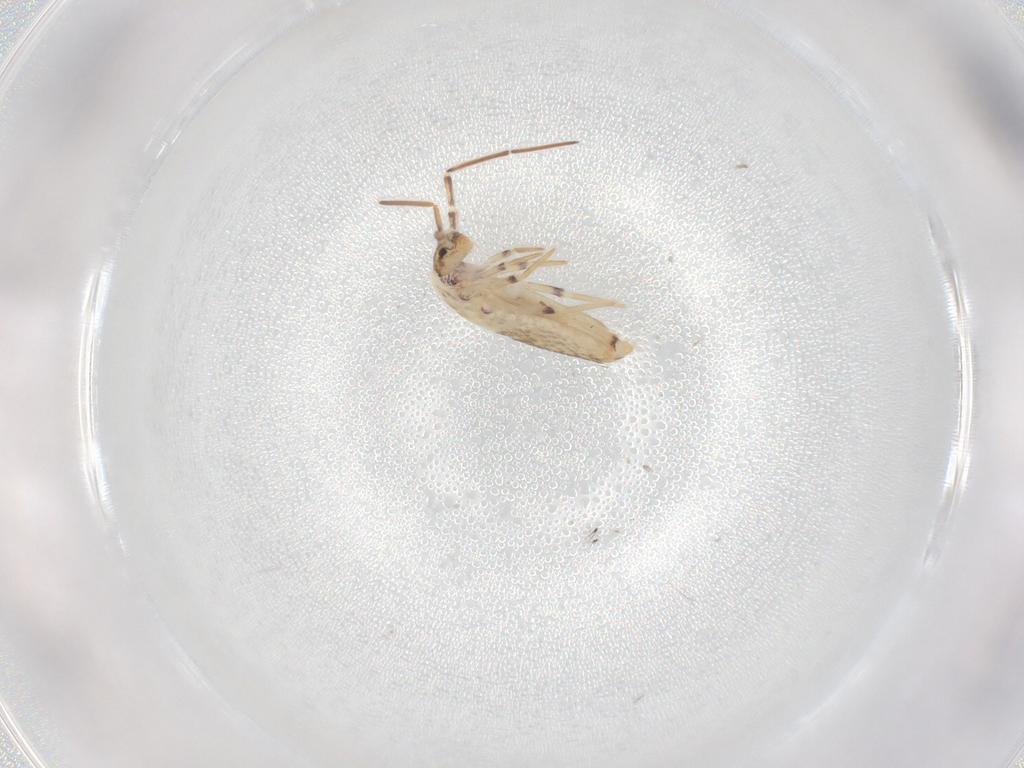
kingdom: Animalia
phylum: Arthropoda
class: Collembola
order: Entomobryomorpha
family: Entomobryidae
